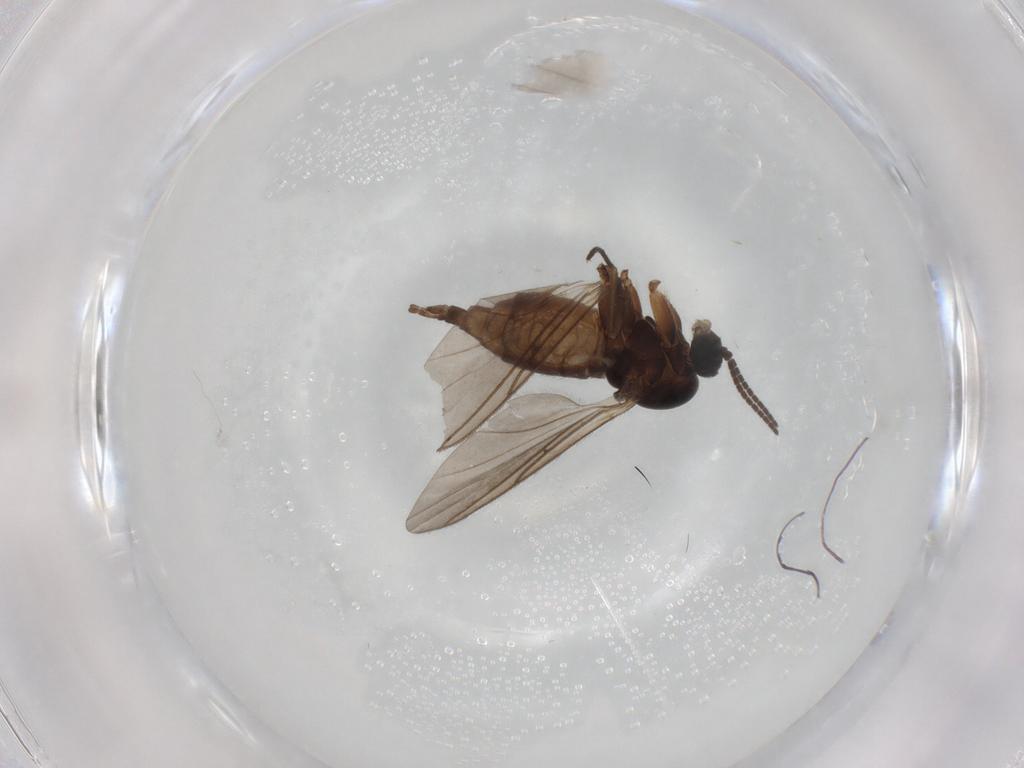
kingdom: Animalia
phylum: Arthropoda
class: Insecta
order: Diptera
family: Sciaridae
